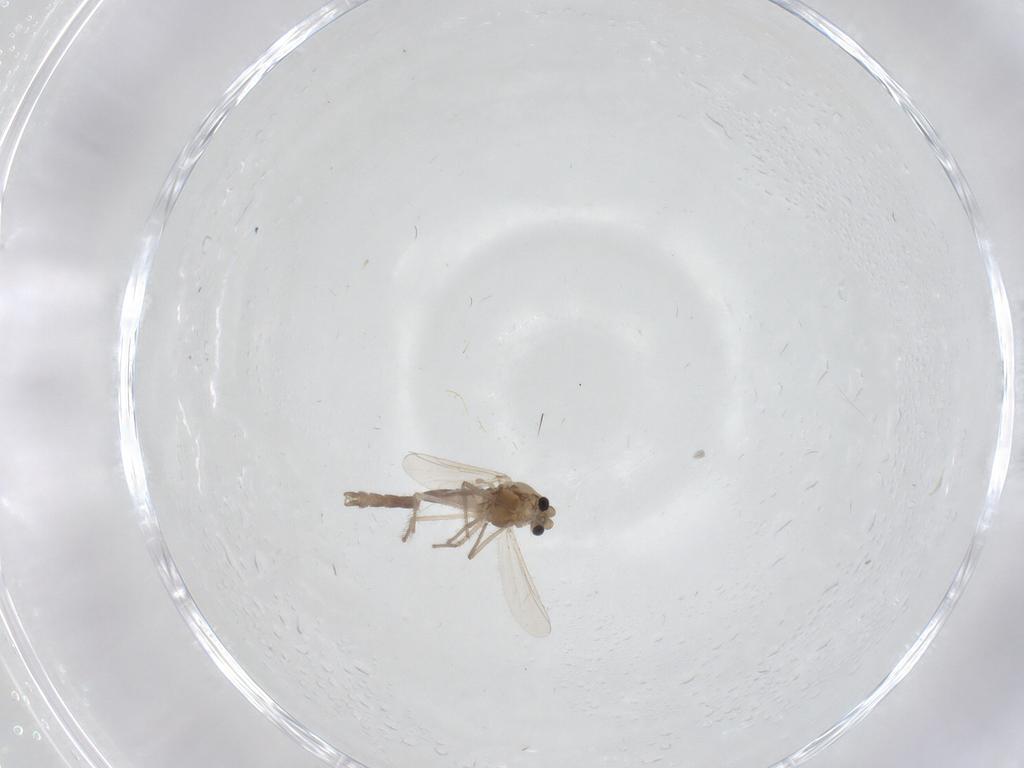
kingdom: Animalia
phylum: Arthropoda
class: Insecta
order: Diptera
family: Chironomidae
